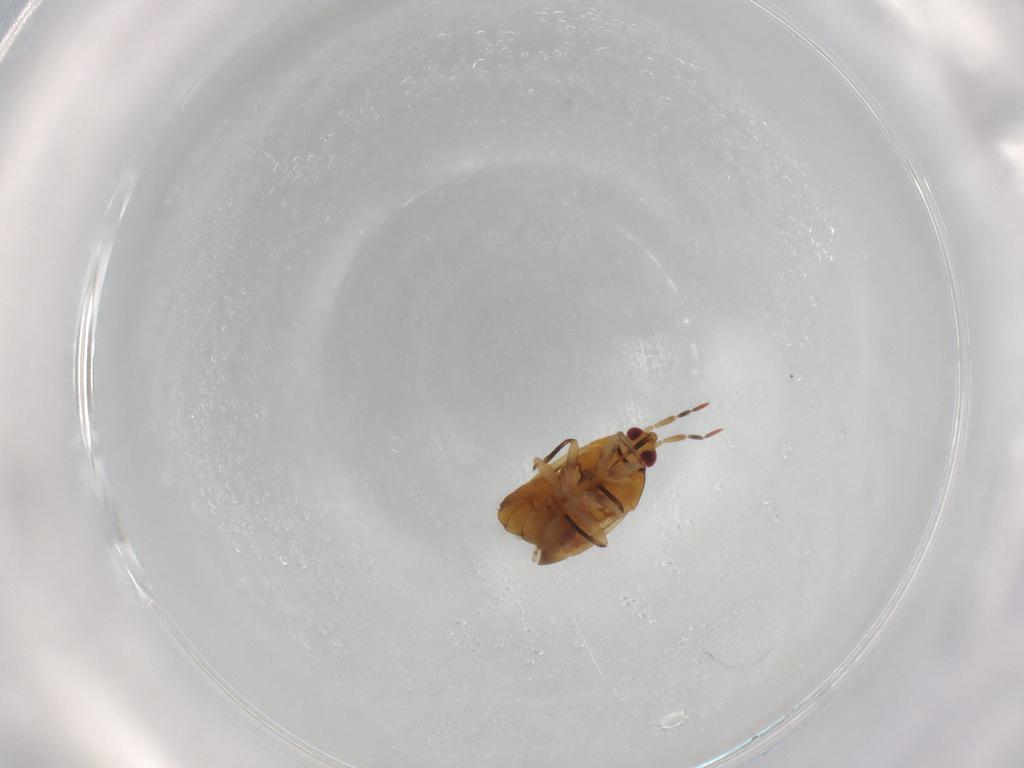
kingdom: Animalia
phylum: Arthropoda
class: Insecta
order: Hemiptera
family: Anthocoridae
